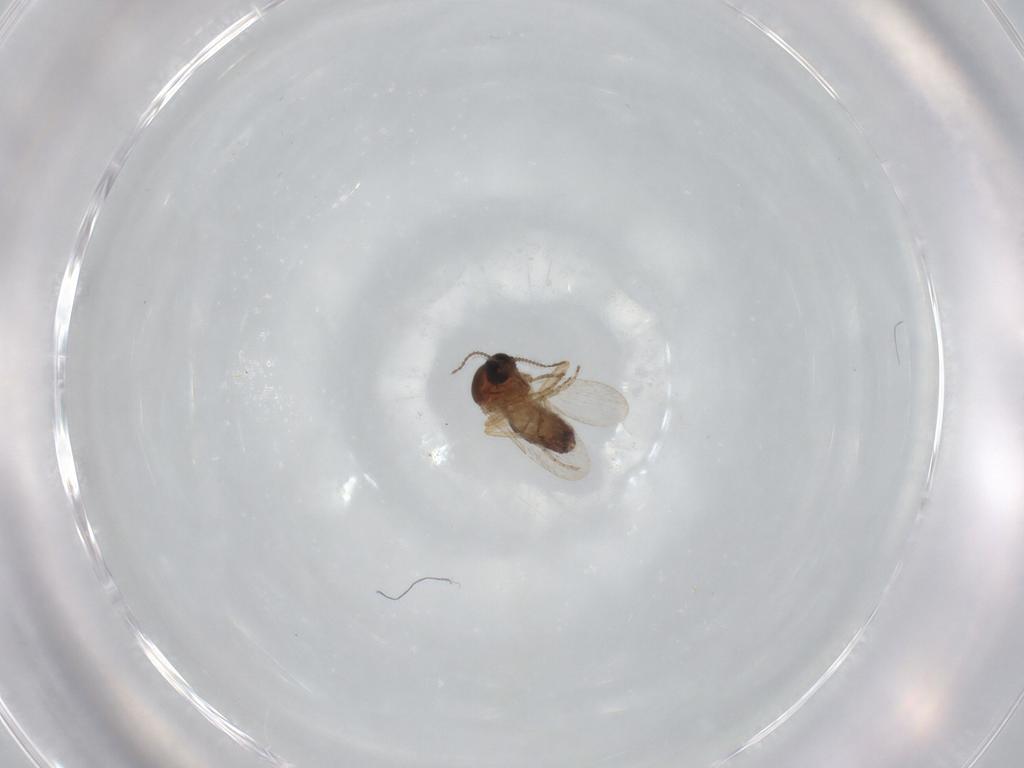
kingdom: Animalia
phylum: Arthropoda
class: Insecta
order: Diptera
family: Ceratopogonidae
